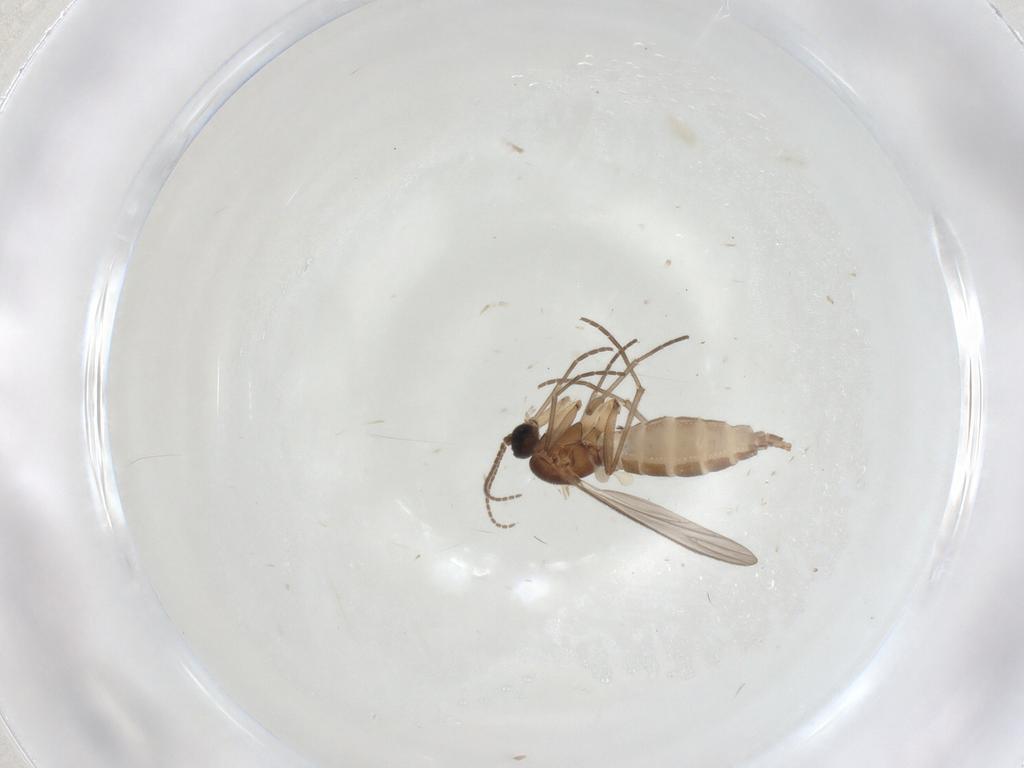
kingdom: Animalia
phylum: Arthropoda
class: Insecta
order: Diptera
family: Sciaridae
